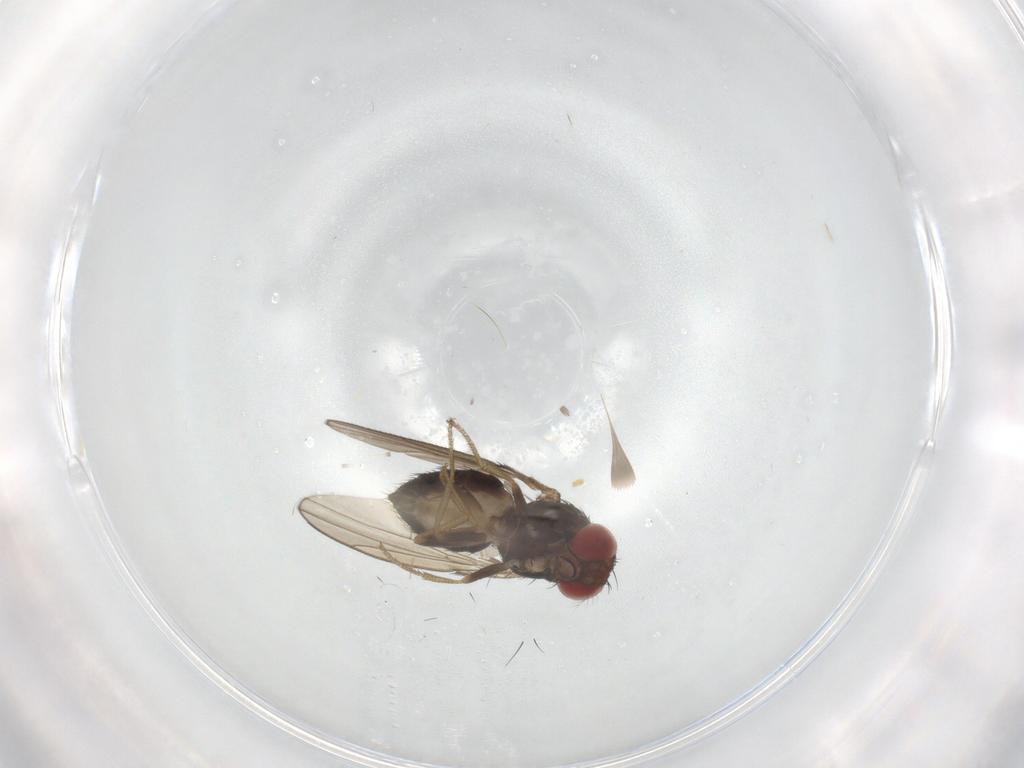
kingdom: Animalia
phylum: Arthropoda
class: Insecta
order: Diptera
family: Drosophilidae
